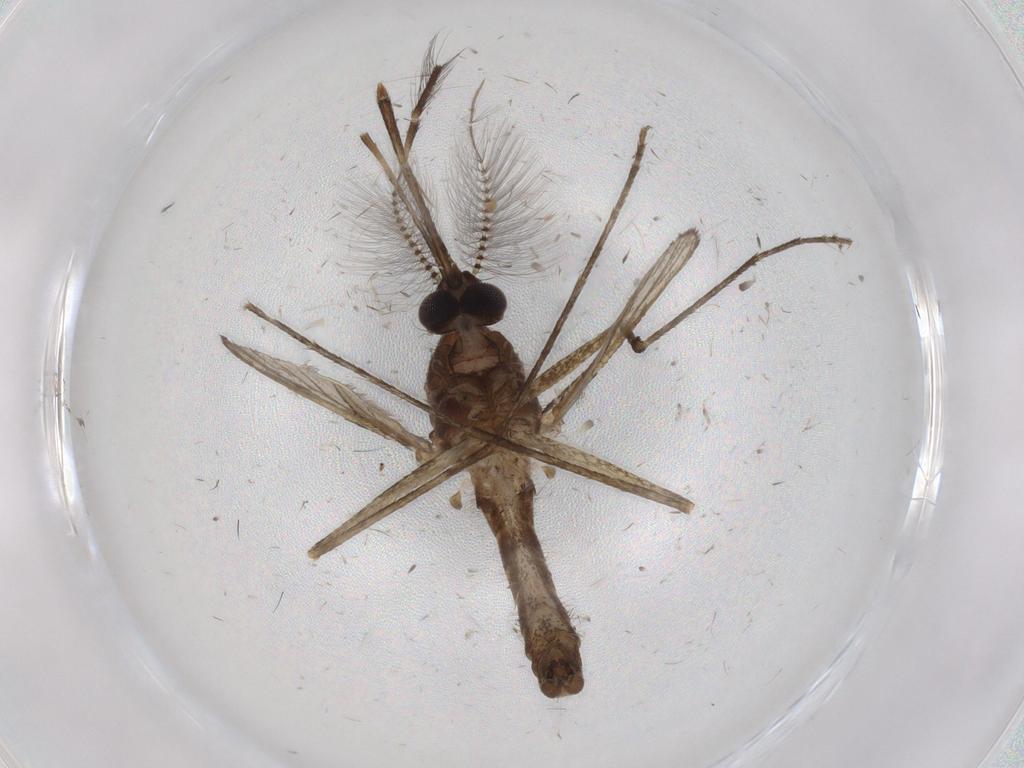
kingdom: Animalia
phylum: Arthropoda
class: Insecta
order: Diptera
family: Chironomidae
